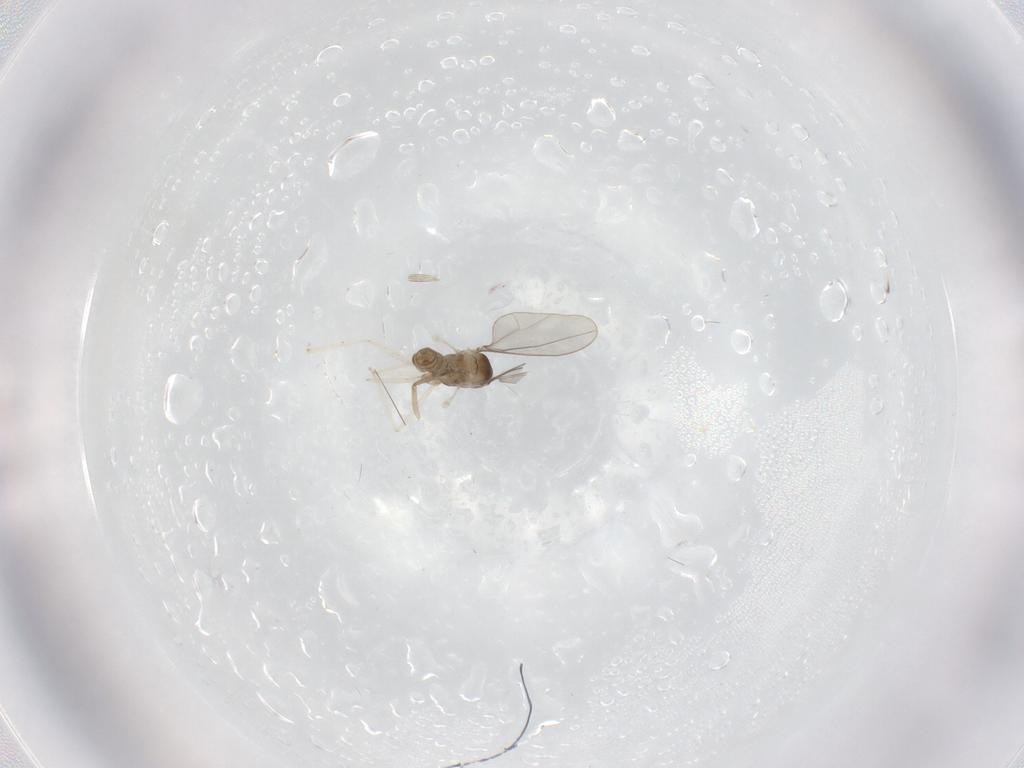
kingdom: Animalia
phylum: Arthropoda
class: Insecta
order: Diptera
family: Cecidomyiidae
